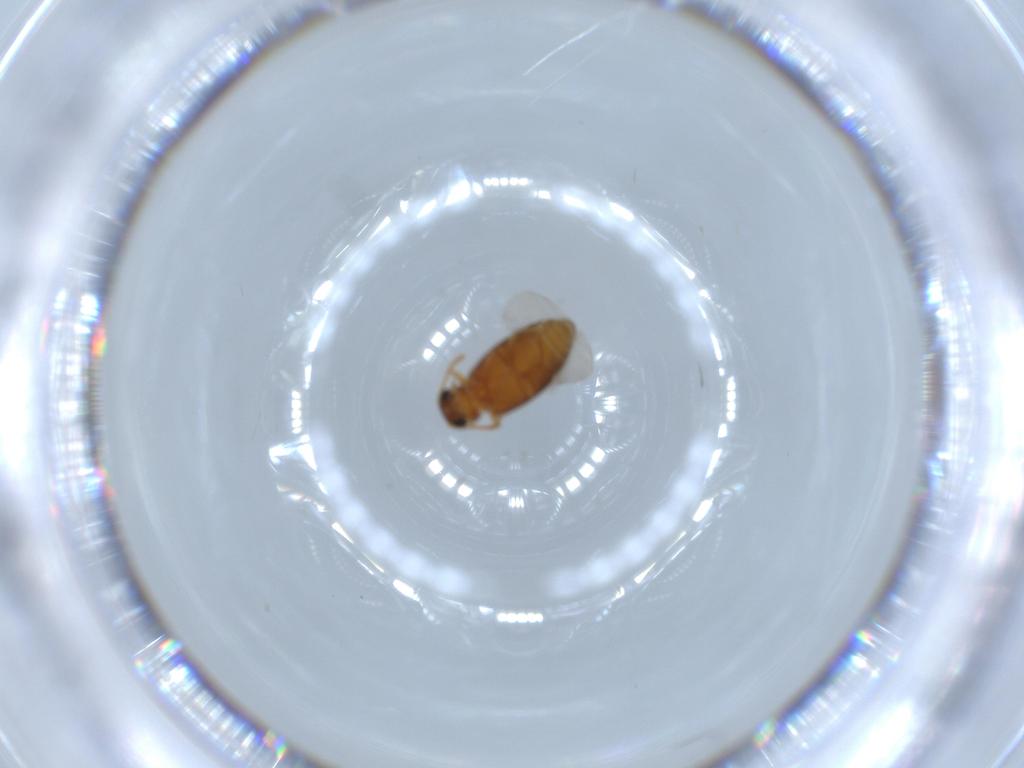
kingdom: Animalia
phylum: Arthropoda
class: Insecta
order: Coleoptera
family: Aderidae
